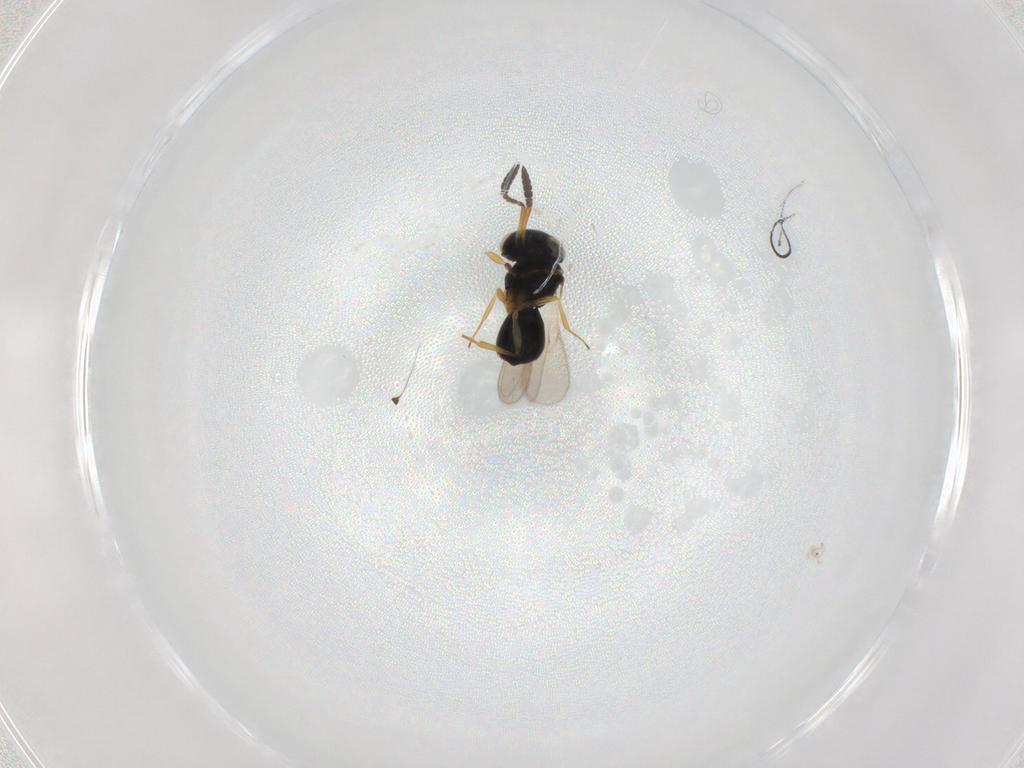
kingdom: Animalia
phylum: Arthropoda
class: Insecta
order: Hymenoptera
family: Scelionidae
